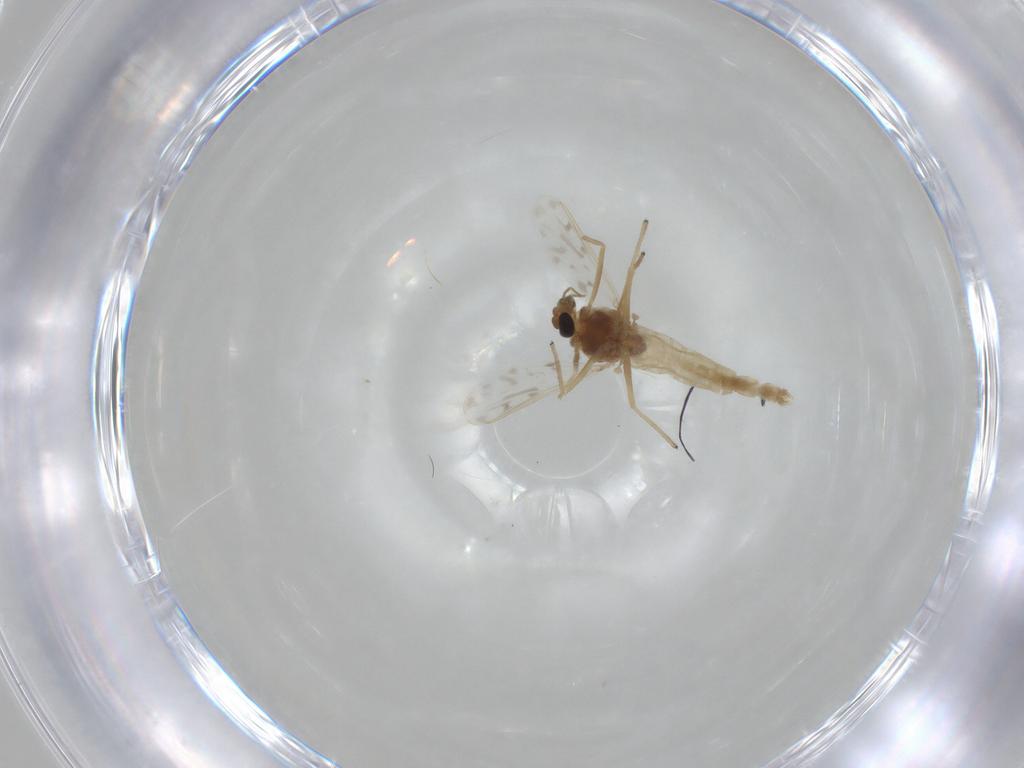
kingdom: Animalia
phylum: Arthropoda
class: Insecta
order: Diptera
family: Chironomidae
